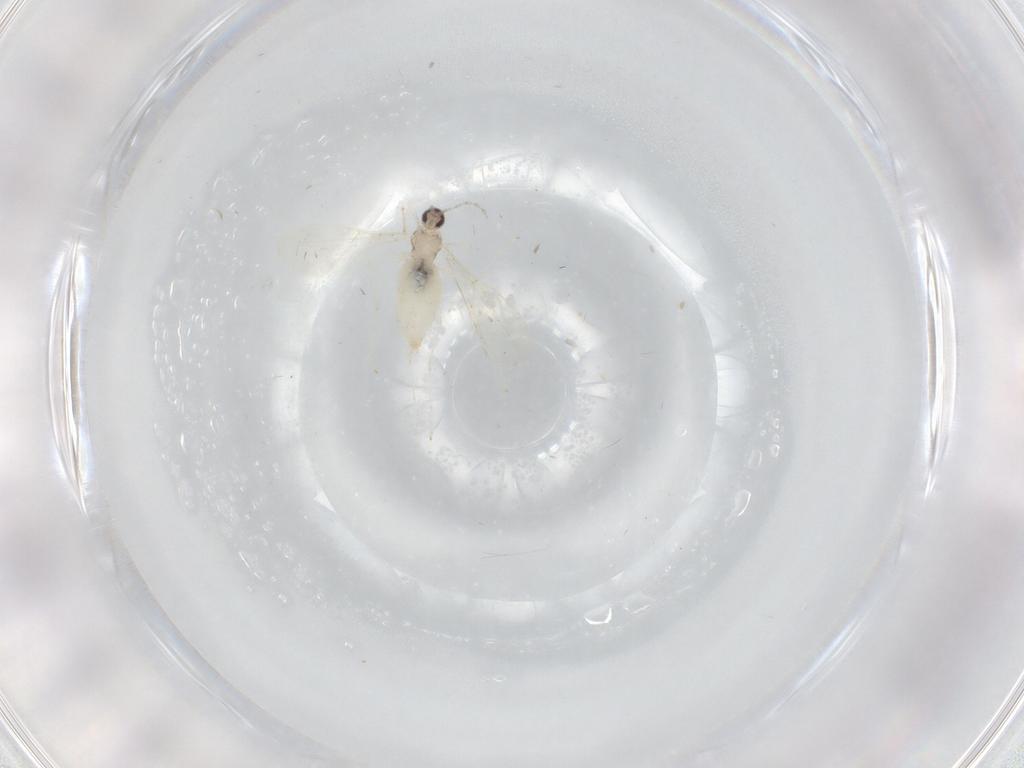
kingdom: Animalia
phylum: Arthropoda
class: Insecta
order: Diptera
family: Cecidomyiidae
